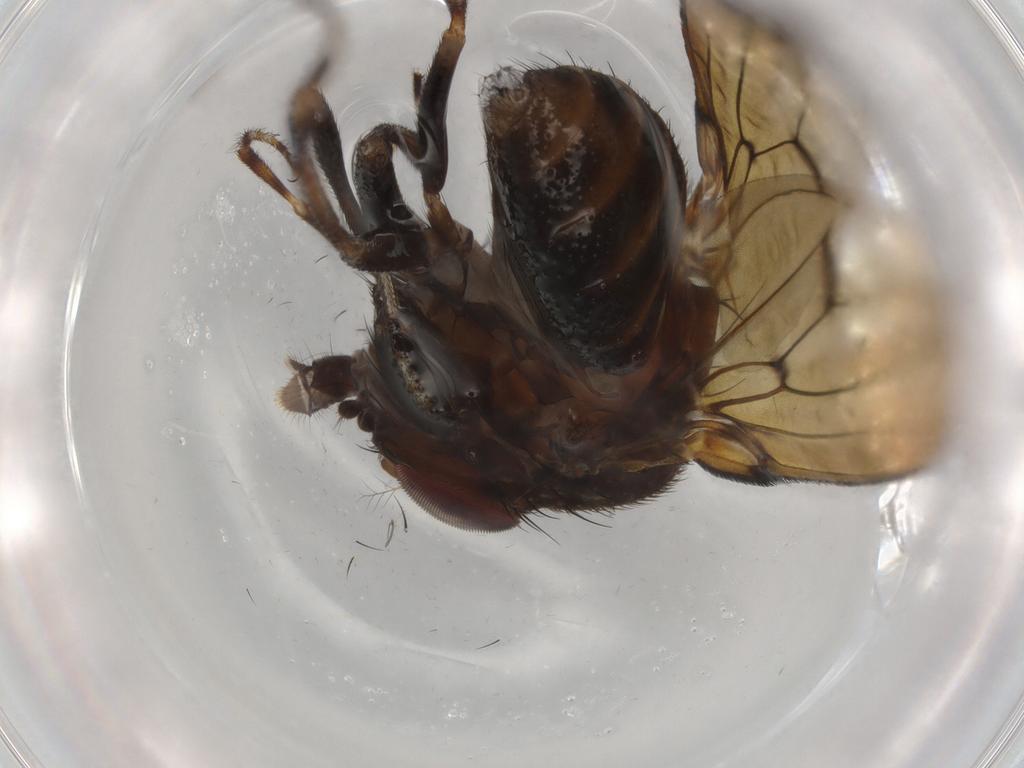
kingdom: Animalia
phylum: Arthropoda
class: Insecta
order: Diptera
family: Drosophilidae
